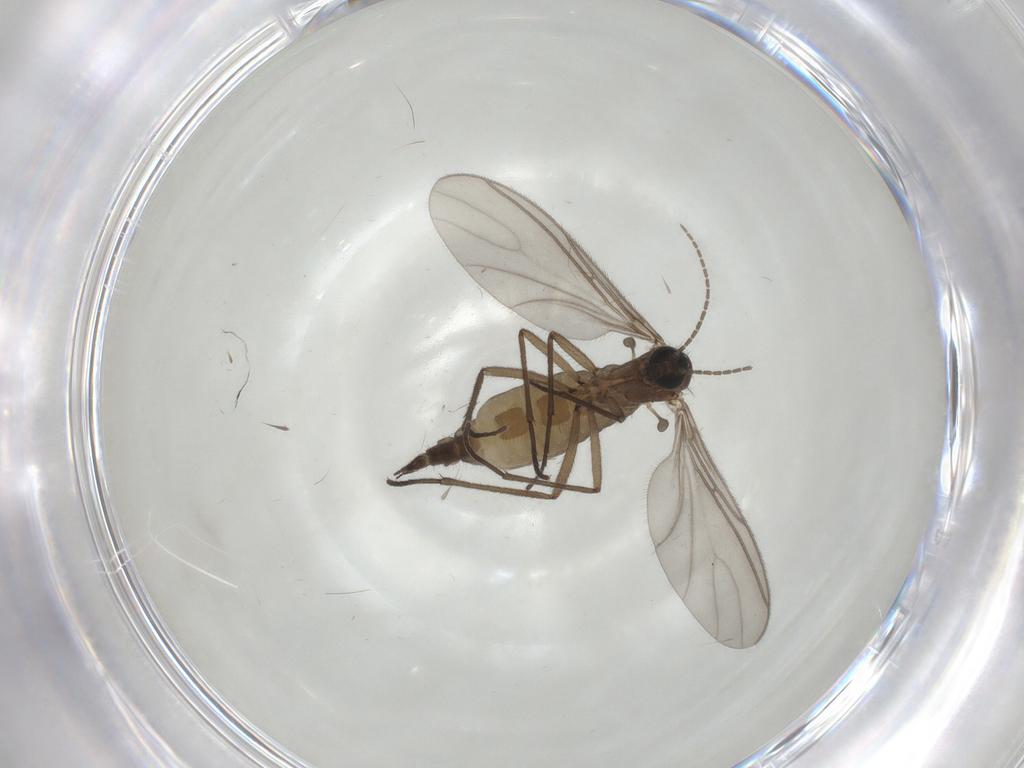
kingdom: Animalia
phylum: Arthropoda
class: Insecta
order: Diptera
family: Sciaridae
